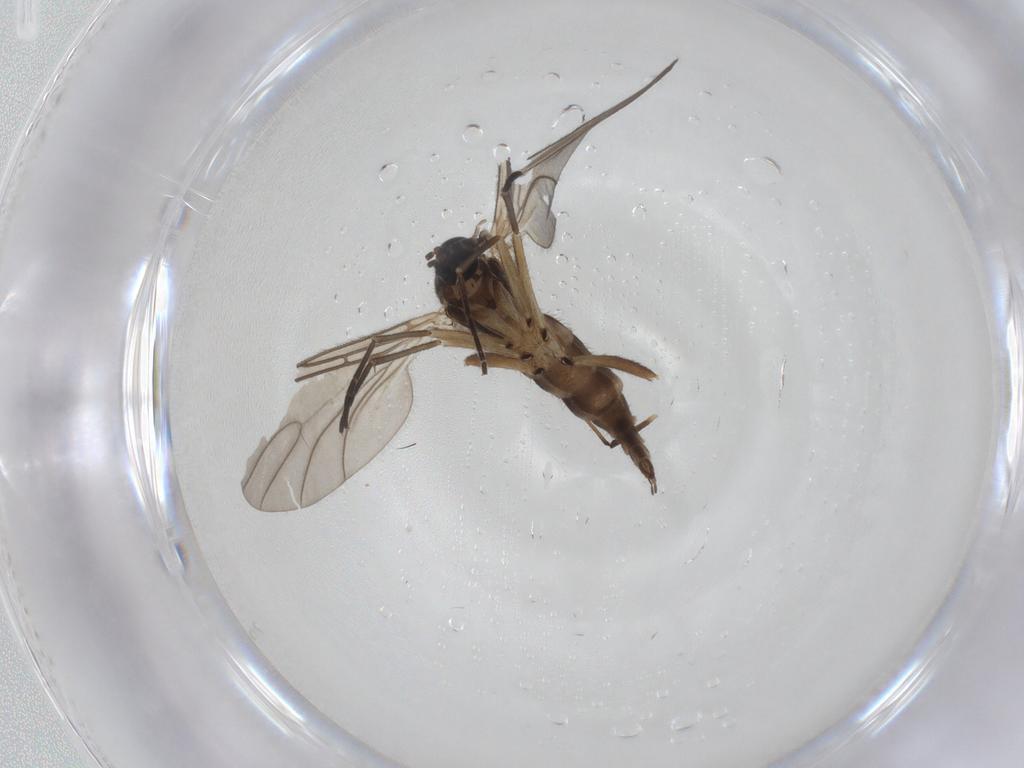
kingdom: Animalia
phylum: Arthropoda
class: Insecta
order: Diptera
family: Sciaridae
